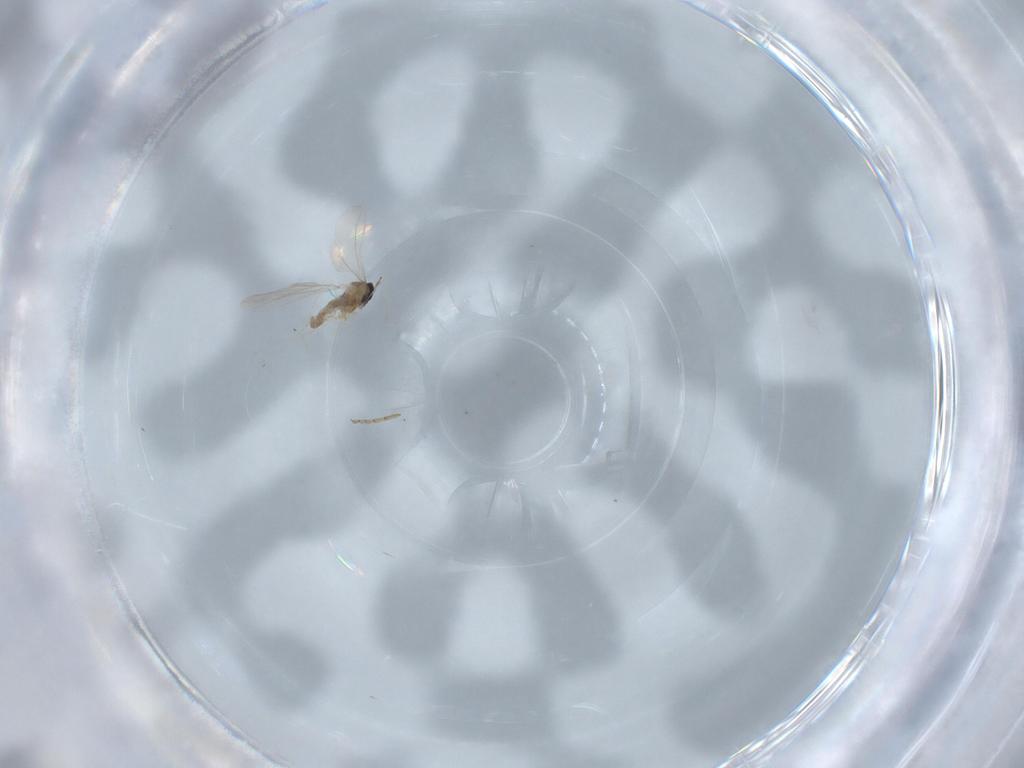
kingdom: Animalia
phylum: Arthropoda
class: Insecta
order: Diptera
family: Cecidomyiidae
